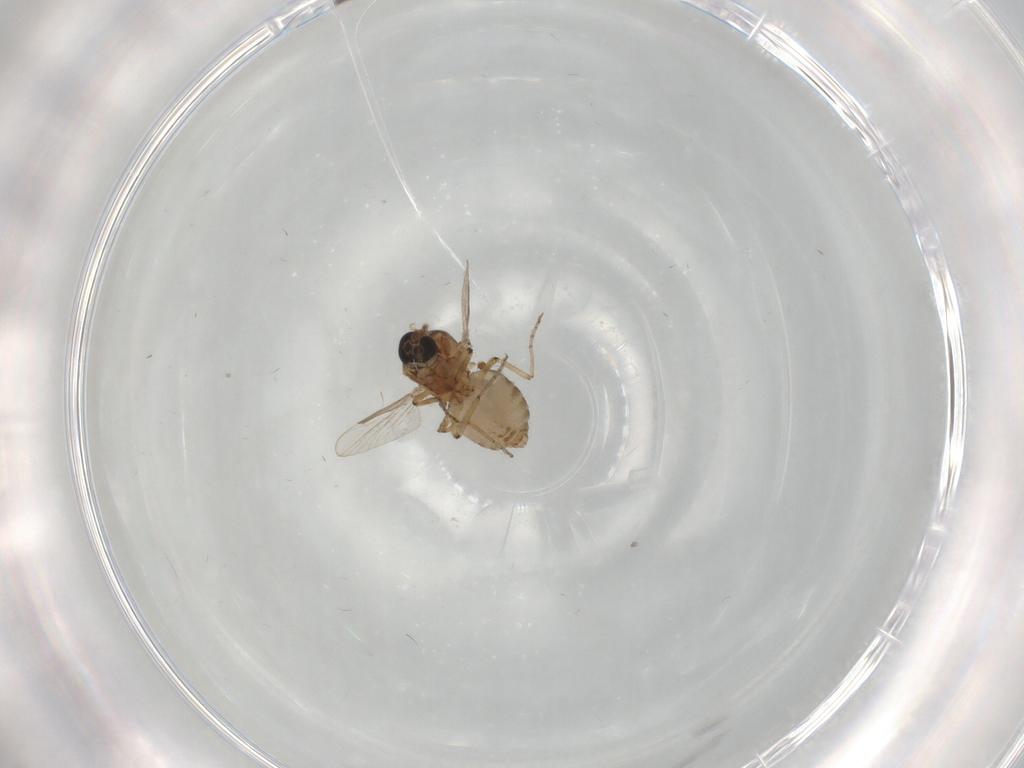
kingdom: Animalia
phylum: Arthropoda
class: Insecta
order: Diptera
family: Ceratopogonidae
